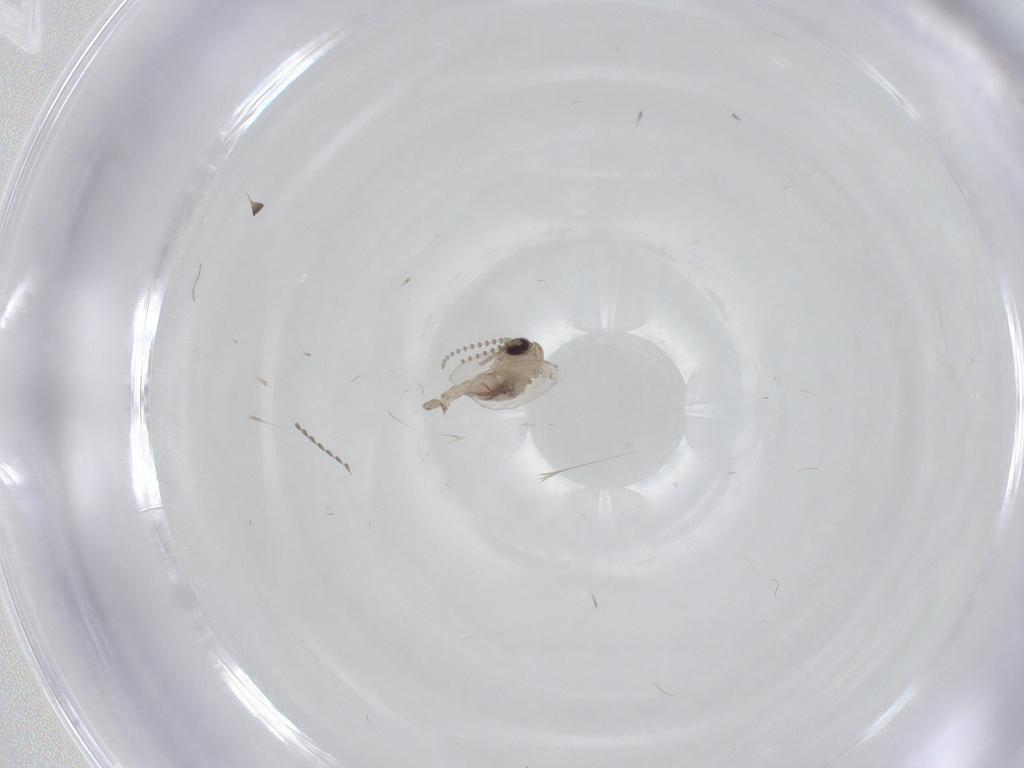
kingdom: Animalia
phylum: Arthropoda
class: Insecta
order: Diptera
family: Psychodidae
